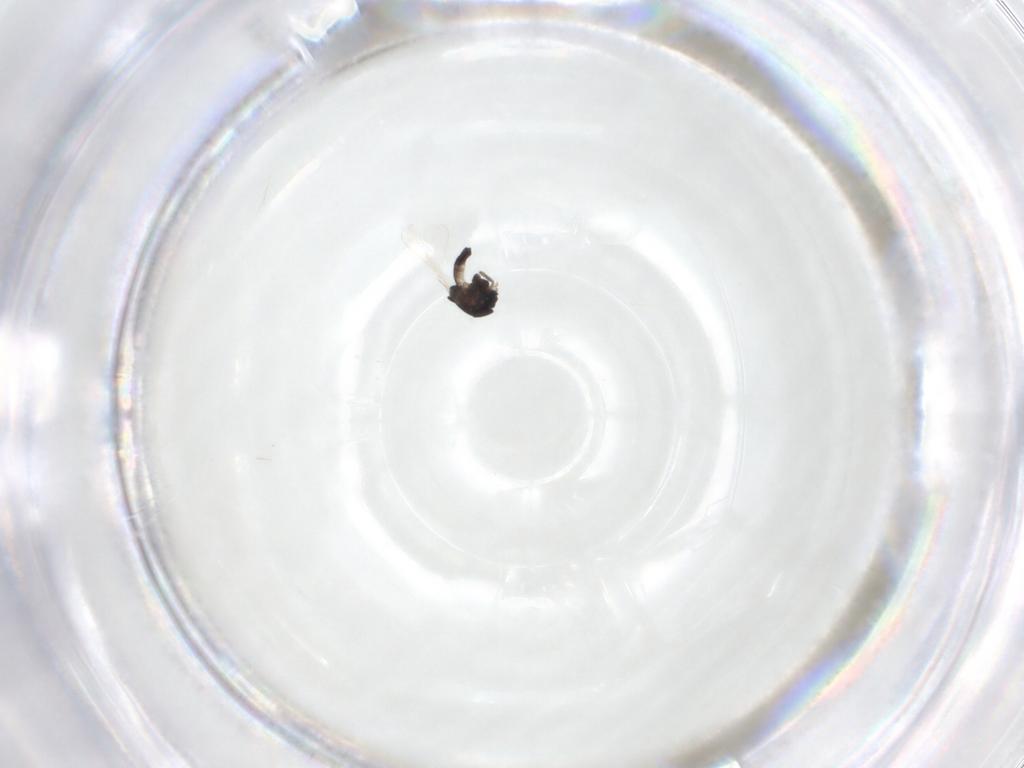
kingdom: Animalia
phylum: Arthropoda
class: Insecta
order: Diptera
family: Chironomidae
